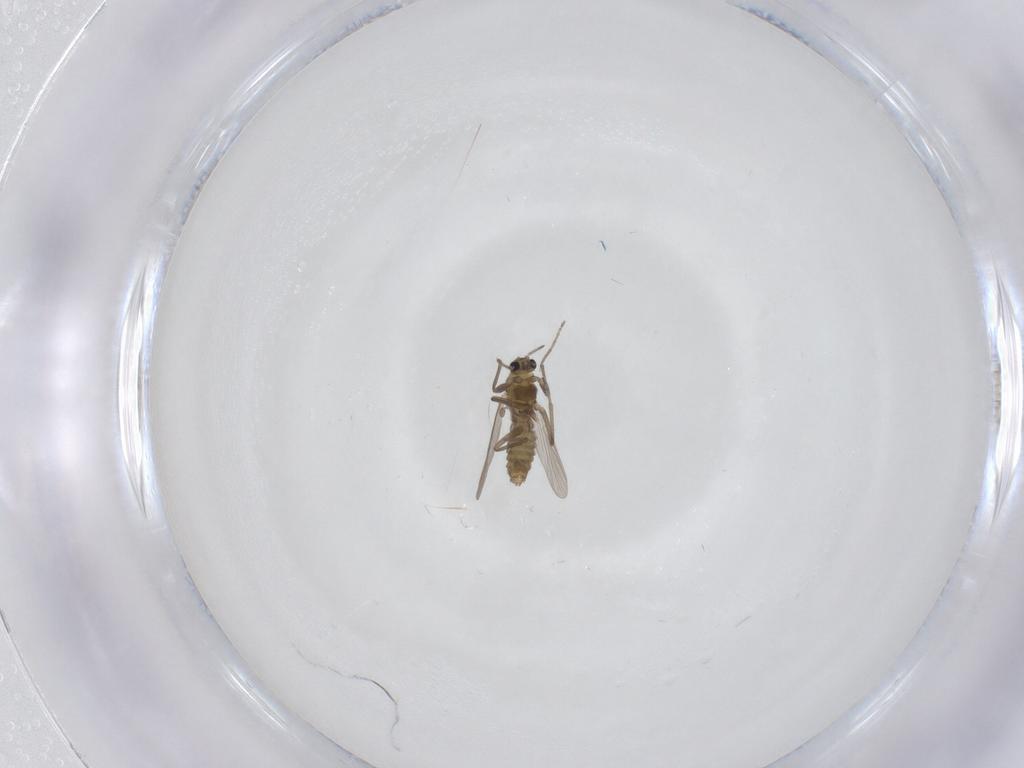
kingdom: Animalia
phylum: Arthropoda
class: Insecta
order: Diptera
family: Chironomidae
